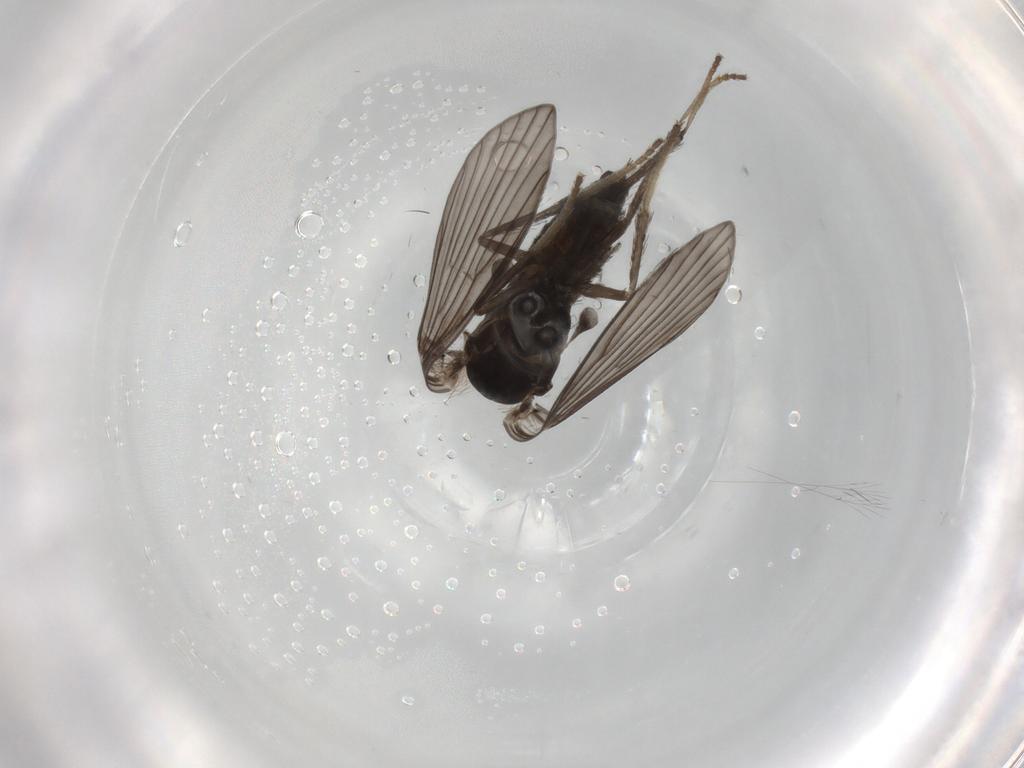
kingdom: Animalia
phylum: Arthropoda
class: Insecta
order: Diptera
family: Psychodidae
